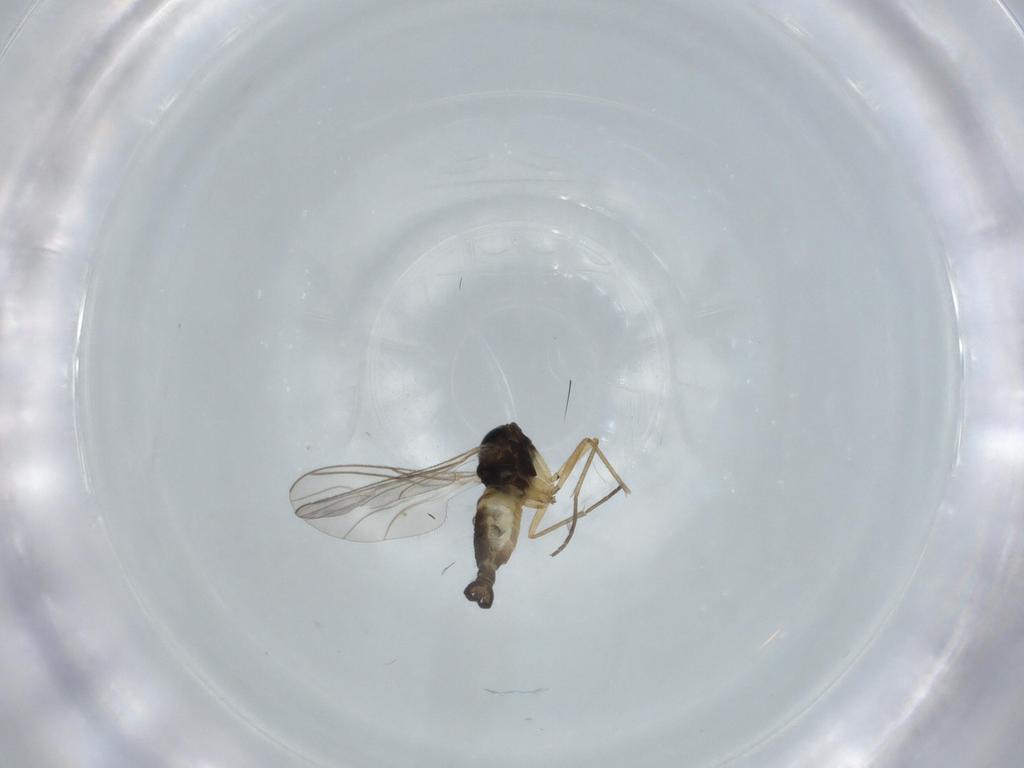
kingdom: Animalia
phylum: Arthropoda
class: Insecta
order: Diptera
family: Sciaridae
